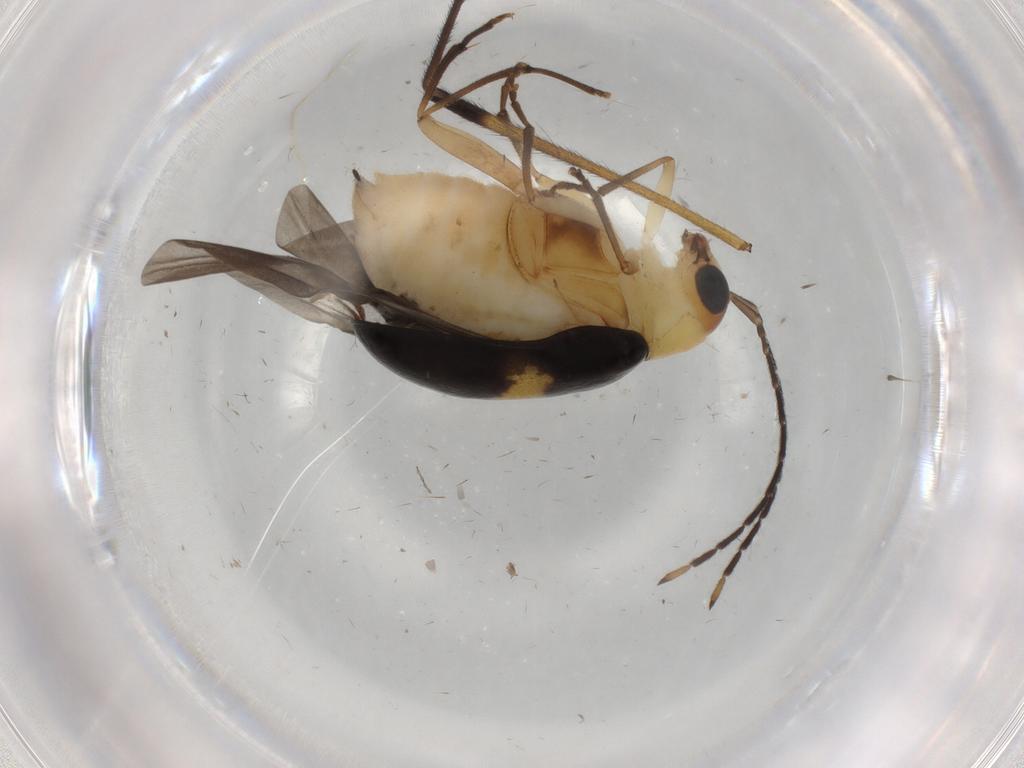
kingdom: Animalia
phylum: Arthropoda
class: Insecta
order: Coleoptera
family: Chrysomelidae
